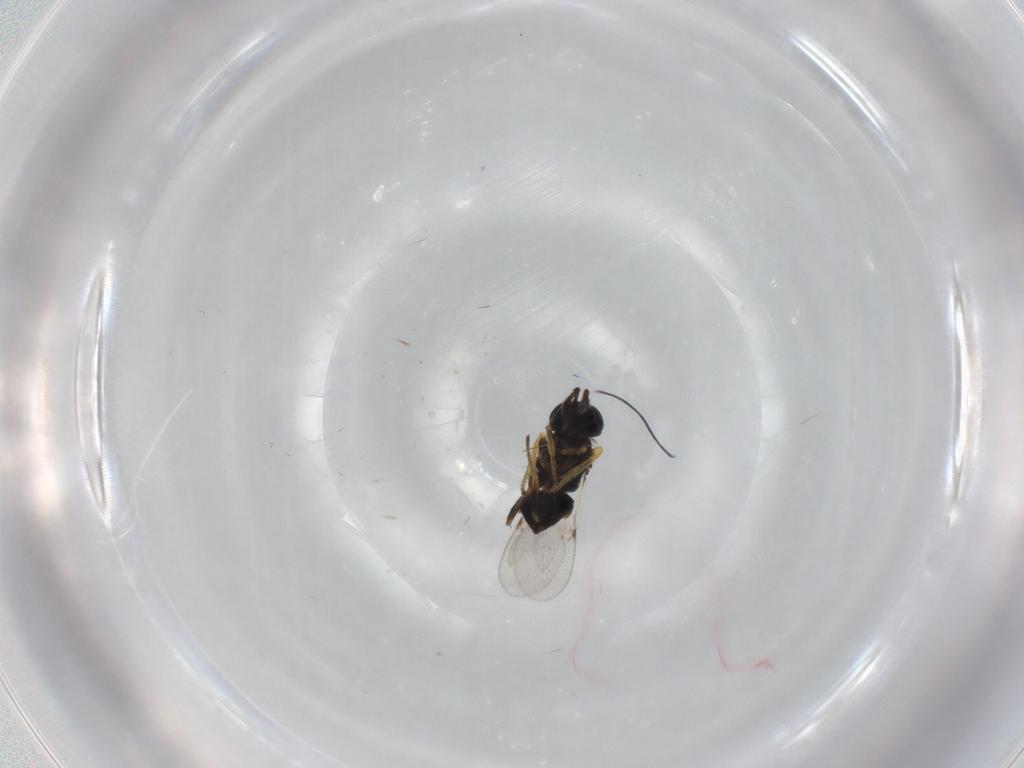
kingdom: Animalia
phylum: Arthropoda
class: Insecta
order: Hymenoptera
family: Encyrtidae
